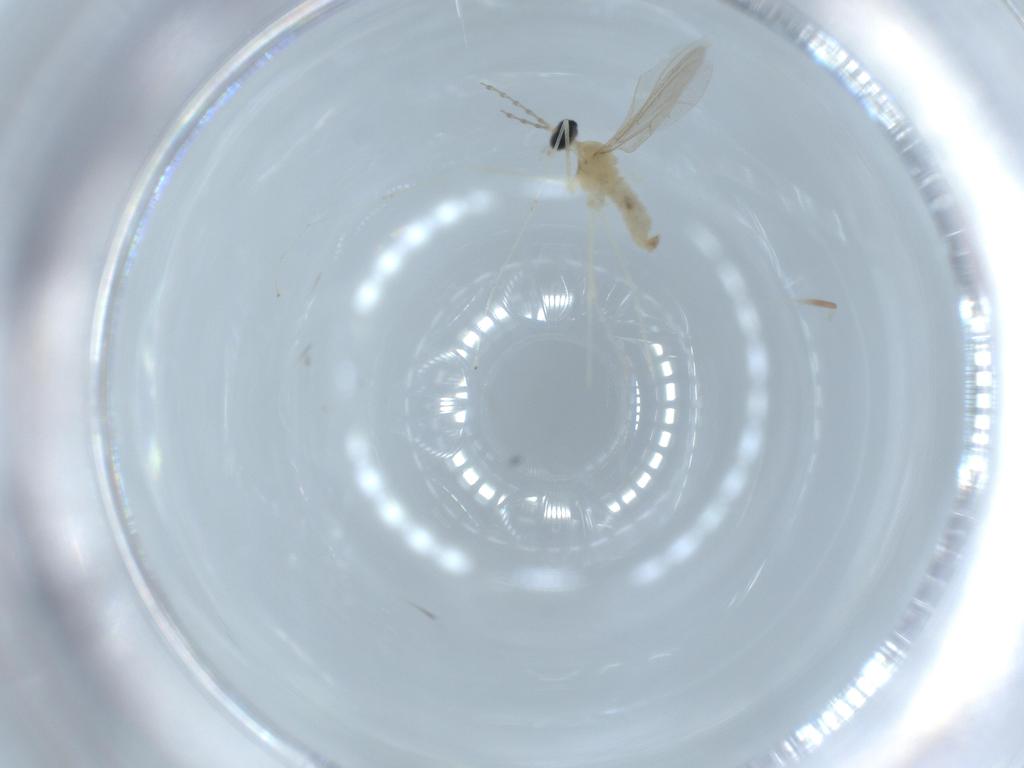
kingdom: Animalia
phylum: Arthropoda
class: Insecta
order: Diptera
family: Cecidomyiidae
